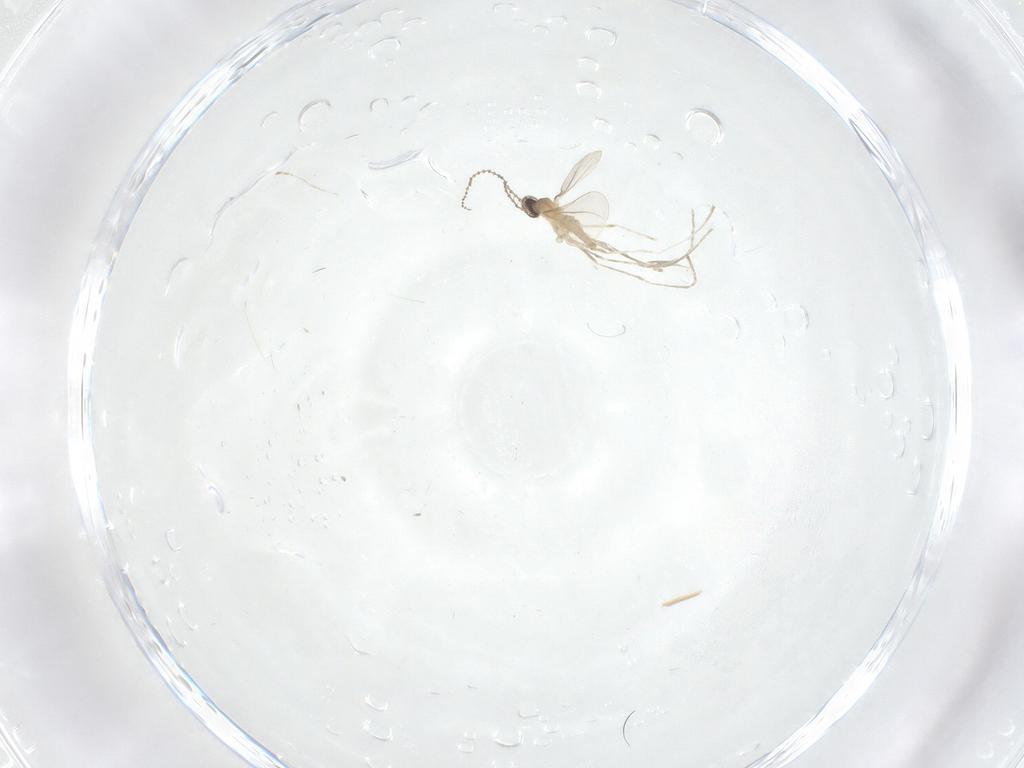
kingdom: Animalia
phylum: Arthropoda
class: Insecta
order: Diptera
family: Cecidomyiidae
